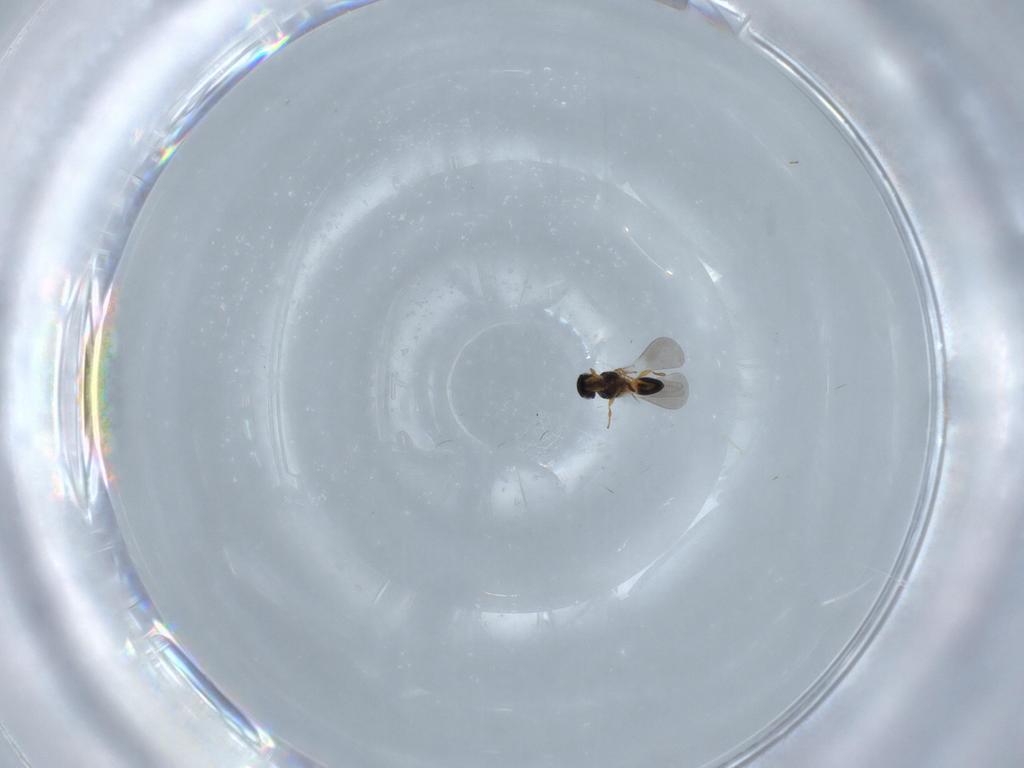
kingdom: Animalia
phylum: Arthropoda
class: Insecta
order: Hymenoptera
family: Platygastridae
